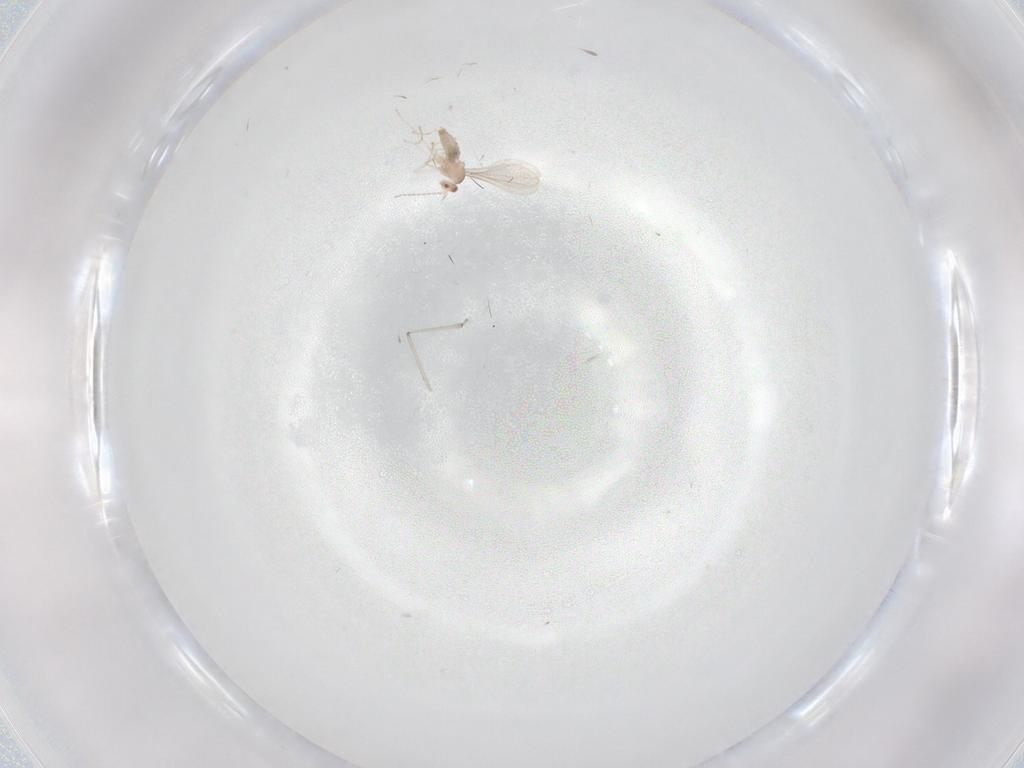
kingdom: Animalia
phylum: Arthropoda
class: Insecta
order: Diptera
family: Cecidomyiidae
